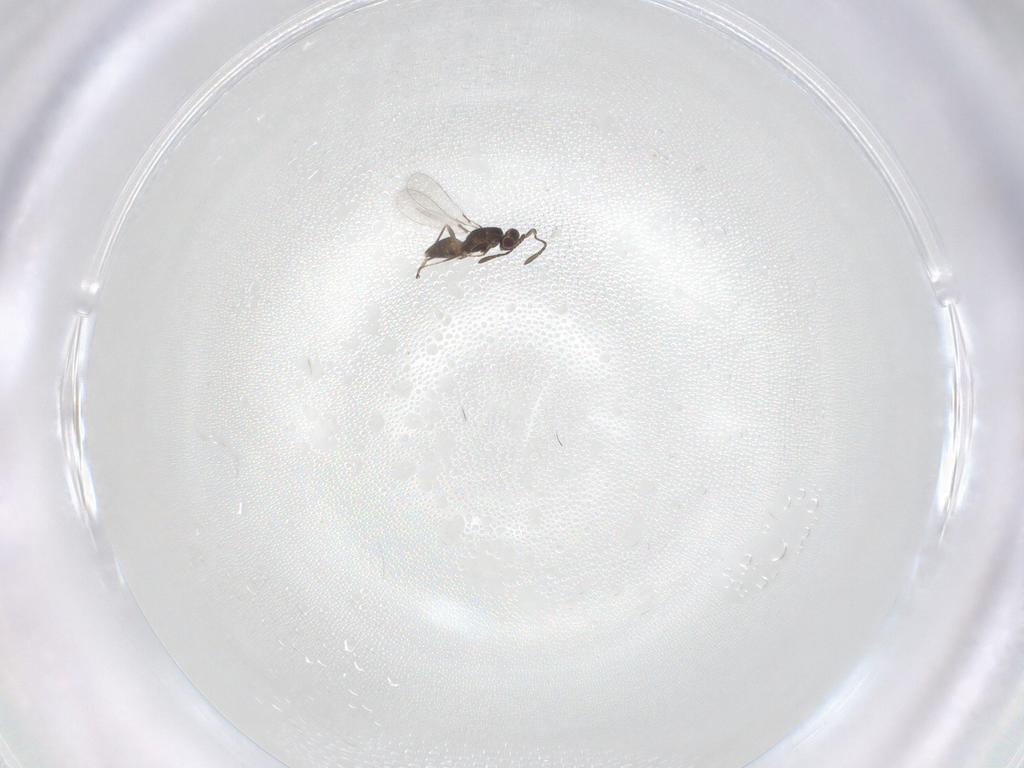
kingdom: Animalia
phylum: Arthropoda
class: Insecta
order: Hymenoptera
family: Mymaridae
